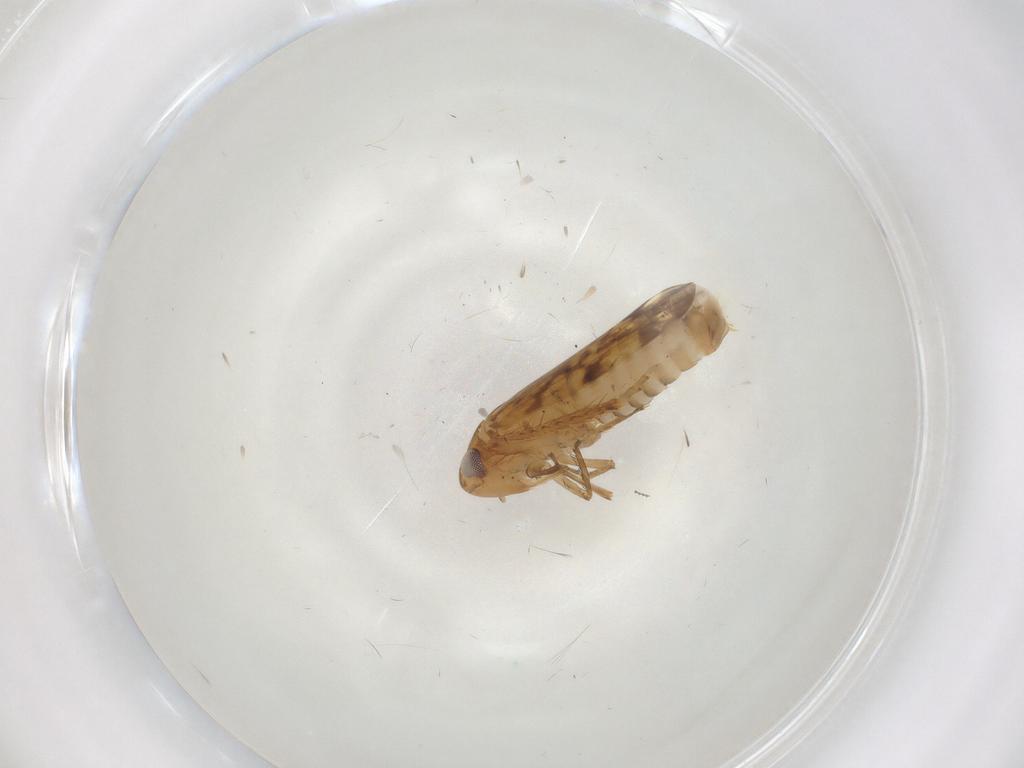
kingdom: Animalia
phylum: Arthropoda
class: Insecta
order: Hemiptera
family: Cicadellidae
